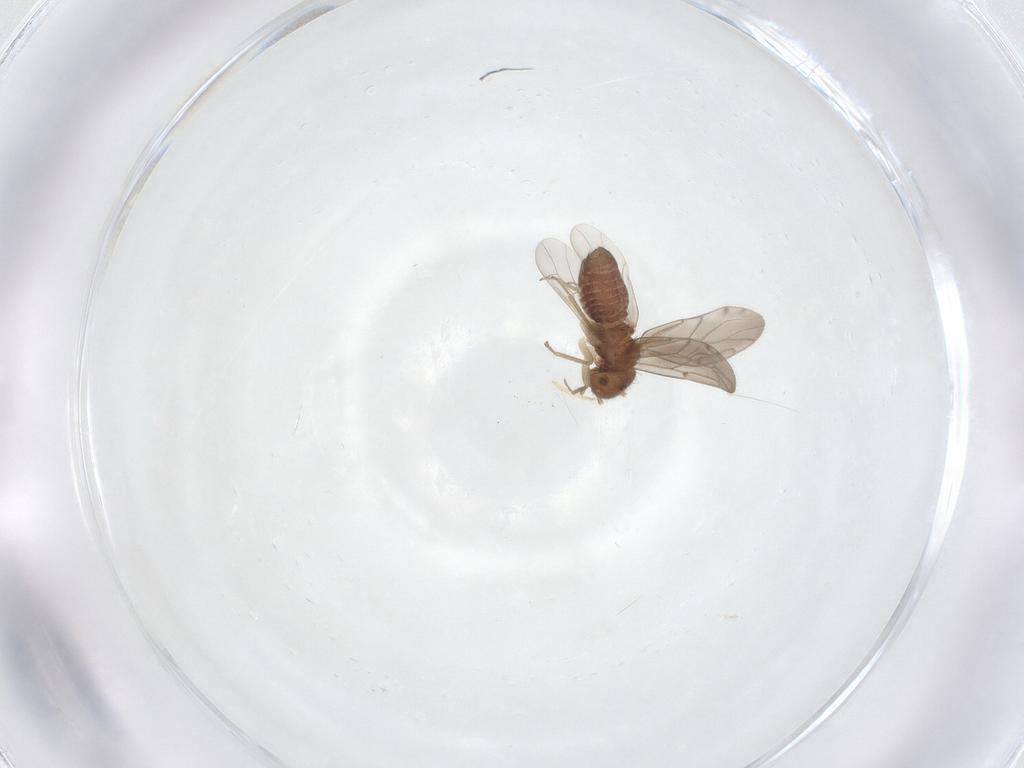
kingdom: Animalia
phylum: Arthropoda
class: Insecta
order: Psocodea
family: Ectopsocidae
